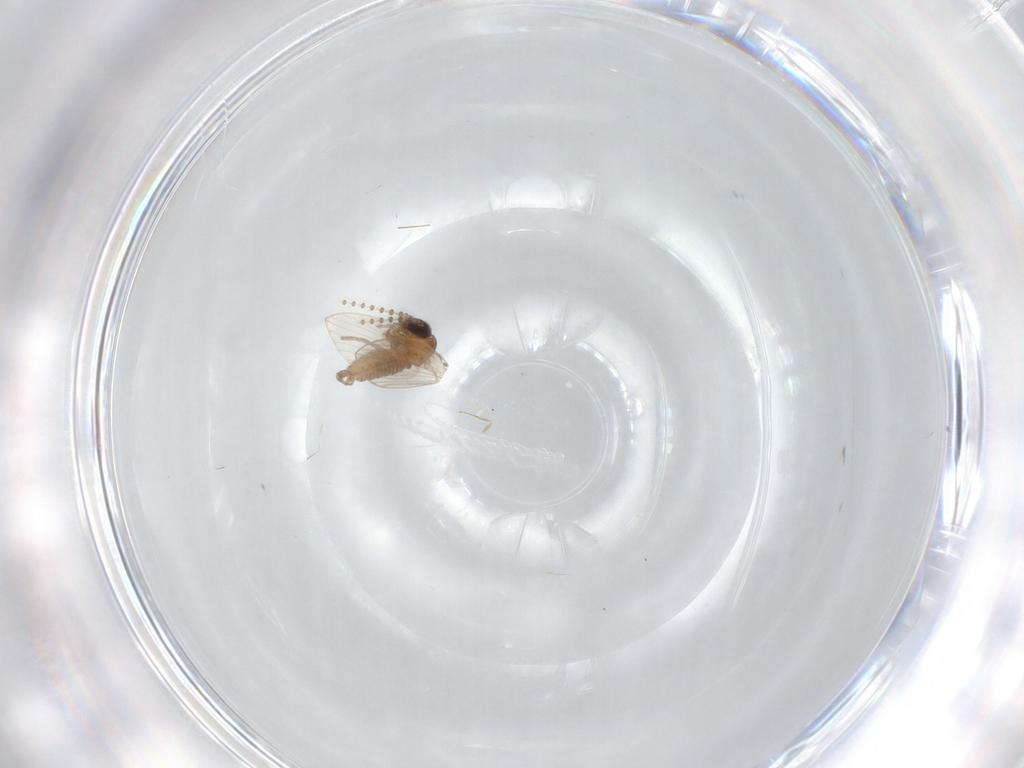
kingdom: Animalia
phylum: Arthropoda
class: Insecta
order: Diptera
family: Psychodidae
